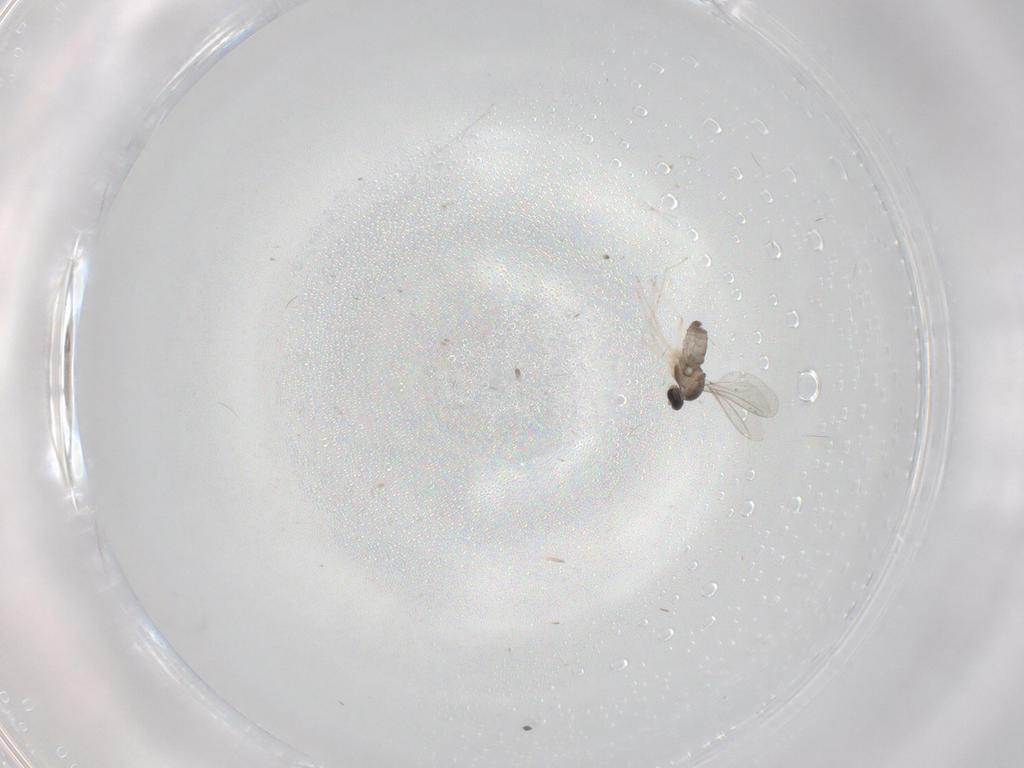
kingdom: Animalia
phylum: Arthropoda
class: Insecta
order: Diptera
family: Cecidomyiidae
